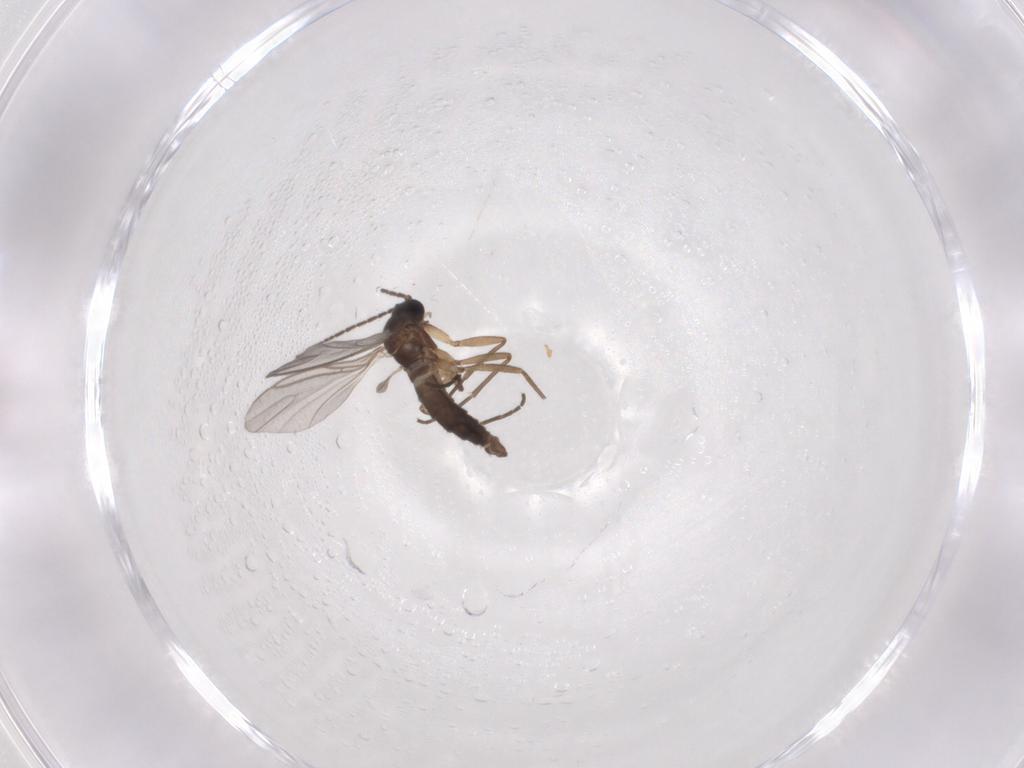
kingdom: Animalia
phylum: Arthropoda
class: Insecta
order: Diptera
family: Sciaridae
